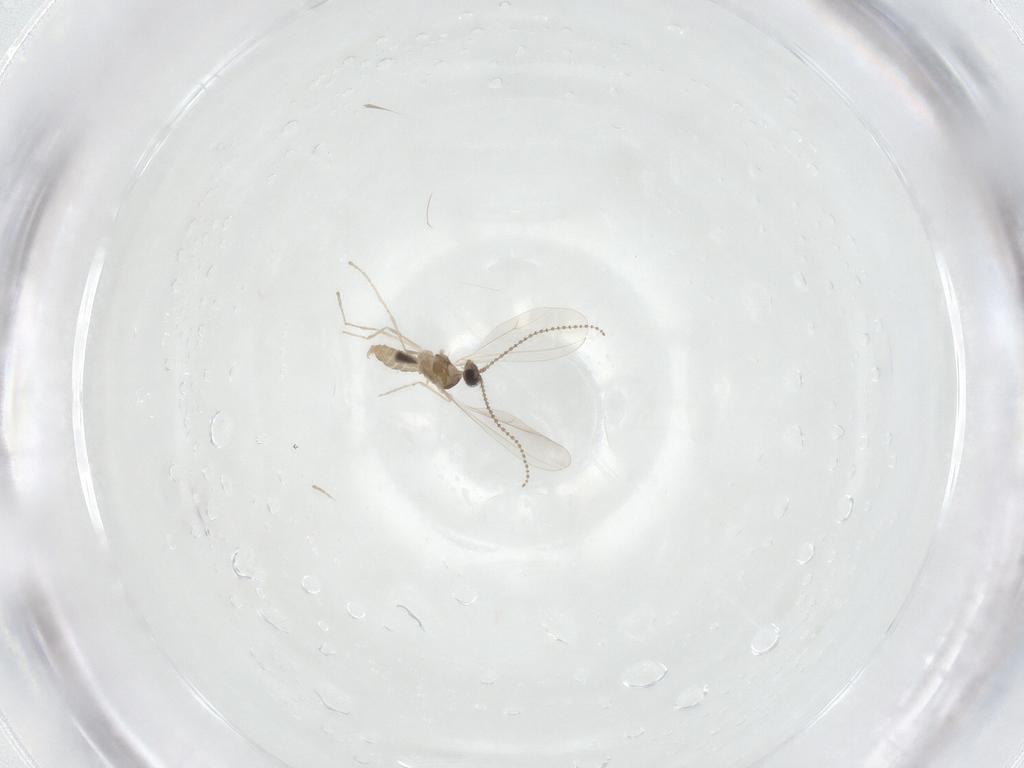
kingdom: Animalia
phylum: Arthropoda
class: Insecta
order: Diptera
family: Cecidomyiidae
